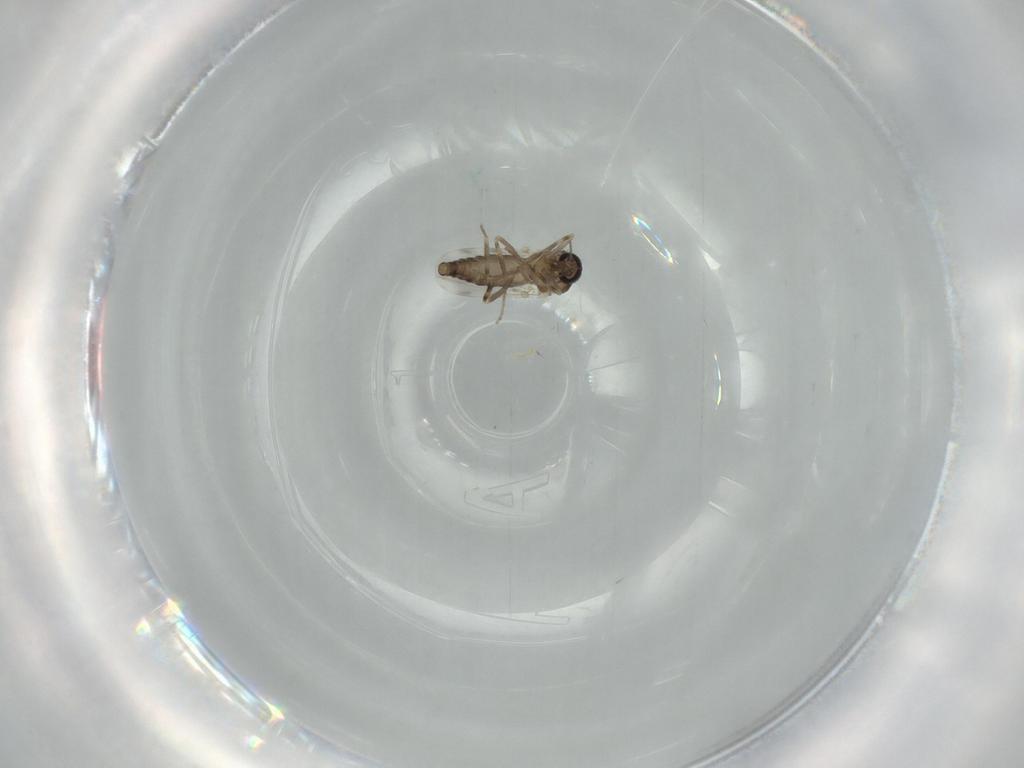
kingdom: Animalia
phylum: Arthropoda
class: Insecta
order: Diptera
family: Ceratopogonidae
